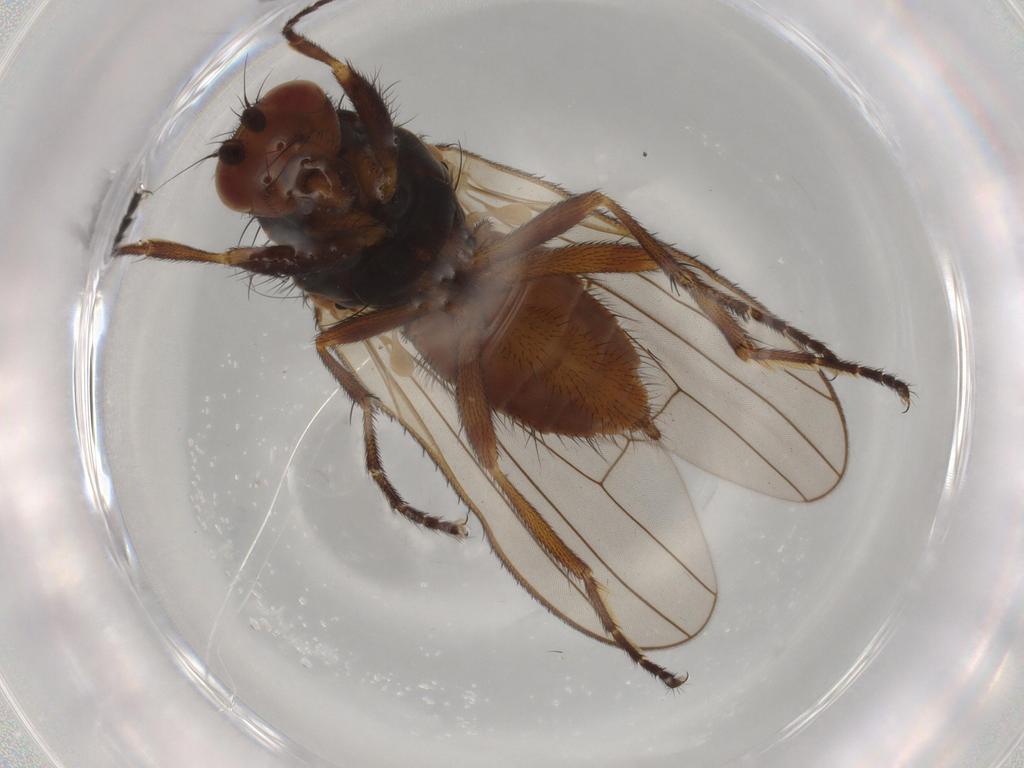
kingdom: Animalia
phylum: Arthropoda
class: Insecta
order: Diptera
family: Heleomyzidae
